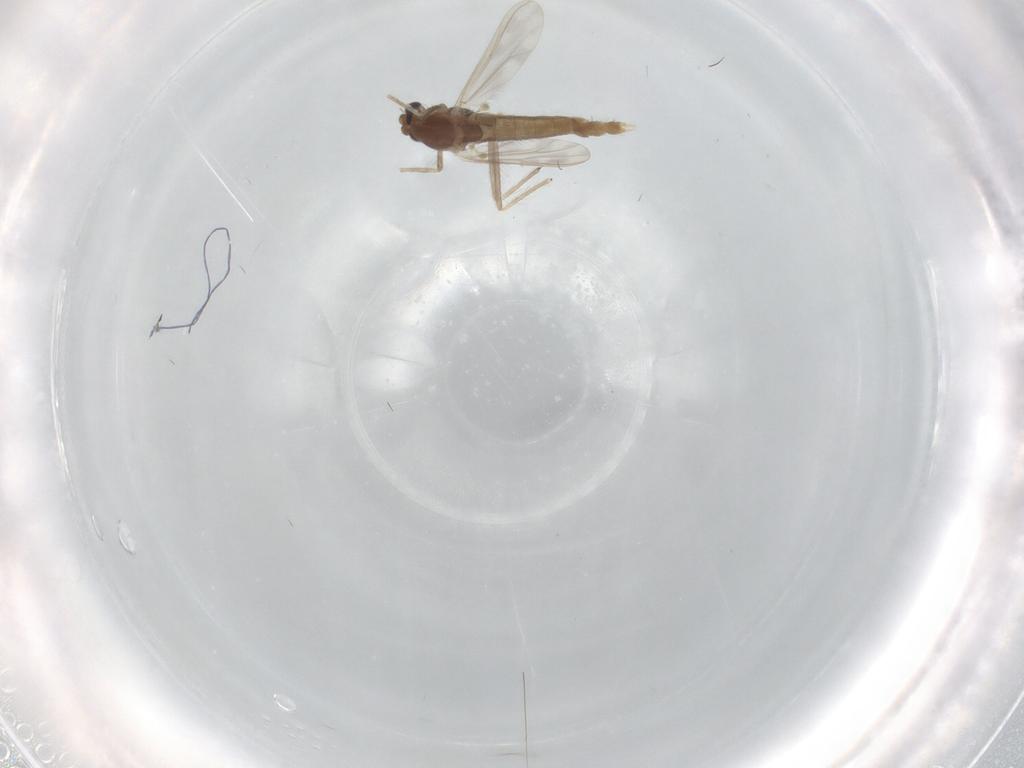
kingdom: Animalia
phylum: Arthropoda
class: Insecta
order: Diptera
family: Chironomidae
